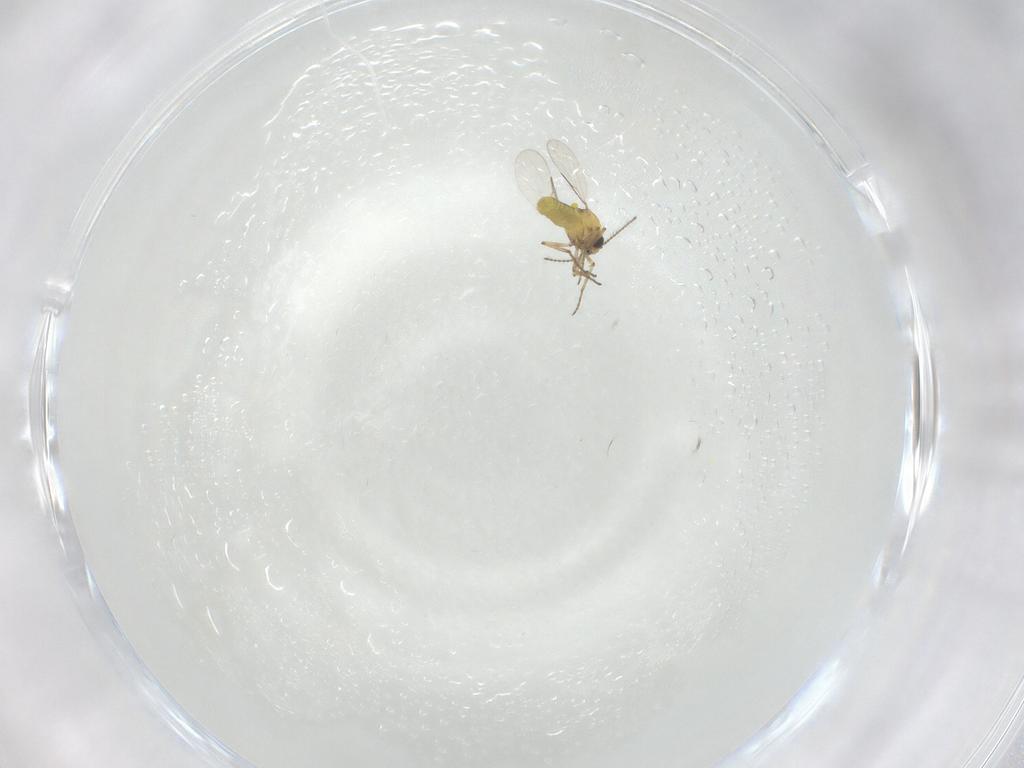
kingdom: Animalia
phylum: Arthropoda
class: Insecta
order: Diptera
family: Ceratopogonidae
